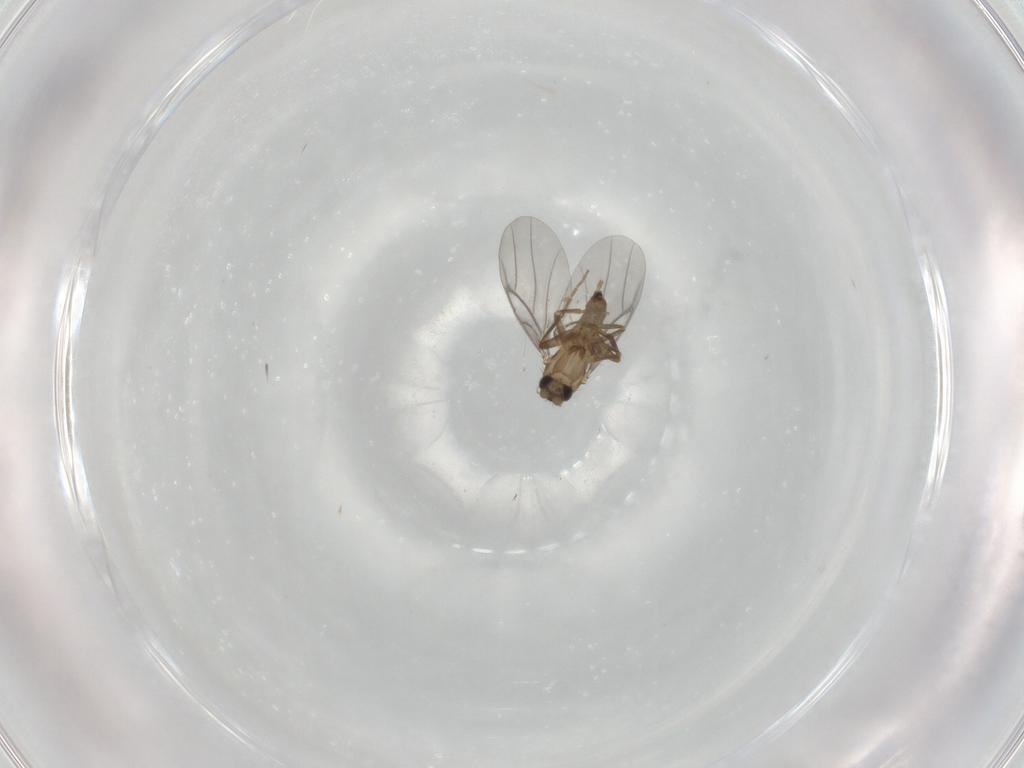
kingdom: Animalia
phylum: Arthropoda
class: Insecta
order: Diptera
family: Cecidomyiidae
